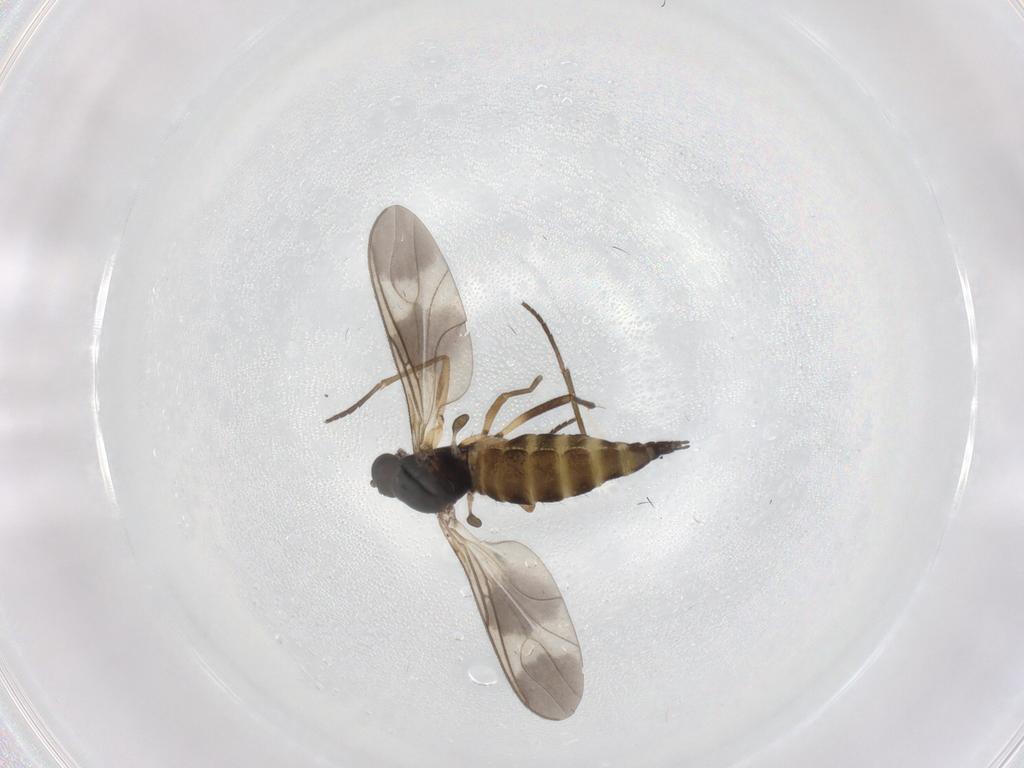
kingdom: Animalia
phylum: Arthropoda
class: Insecta
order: Diptera
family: Sciaridae
